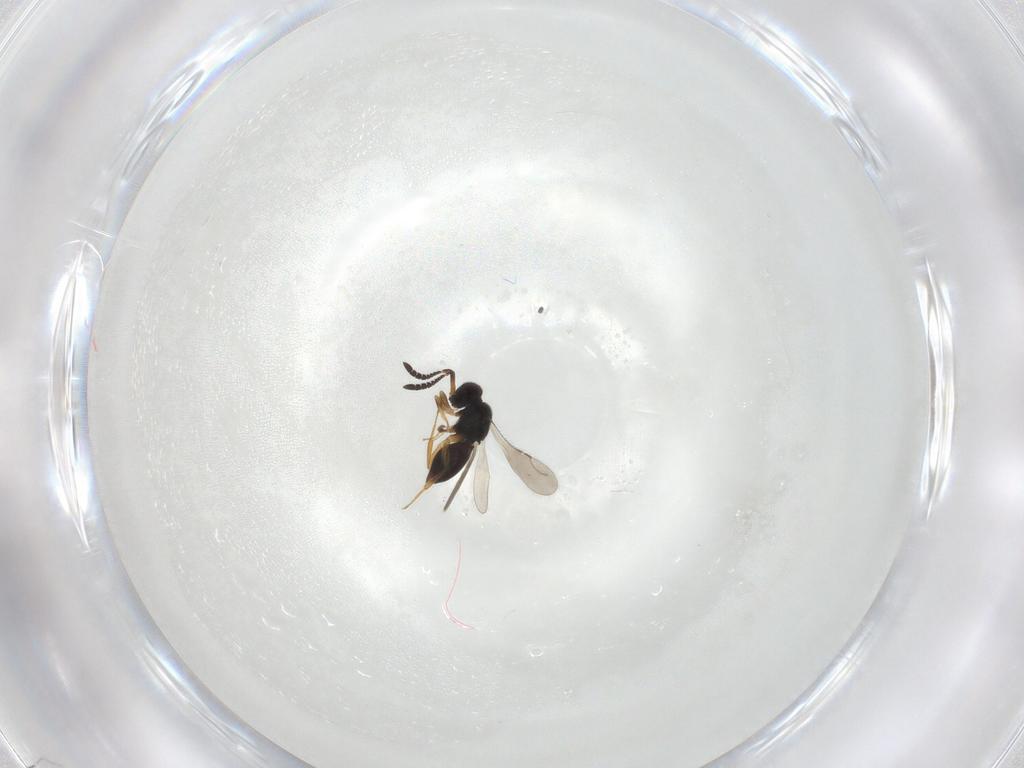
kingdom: Animalia
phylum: Arthropoda
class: Insecta
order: Hymenoptera
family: Ceraphronidae
